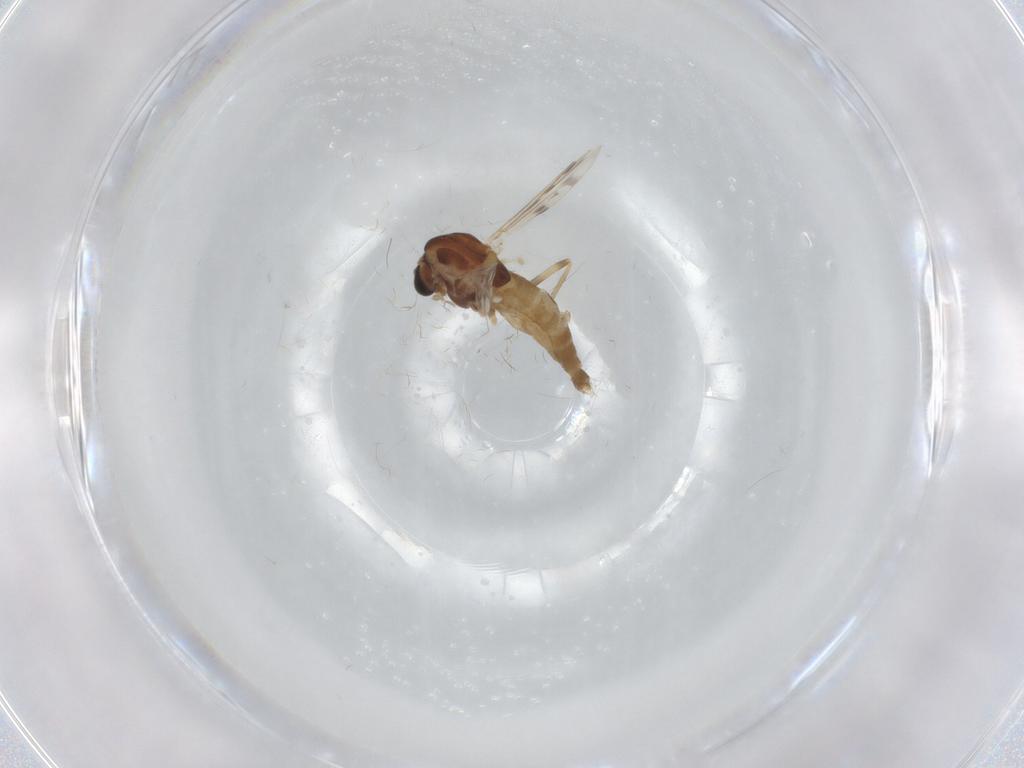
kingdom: Animalia
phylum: Arthropoda
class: Insecta
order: Diptera
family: Chironomidae
